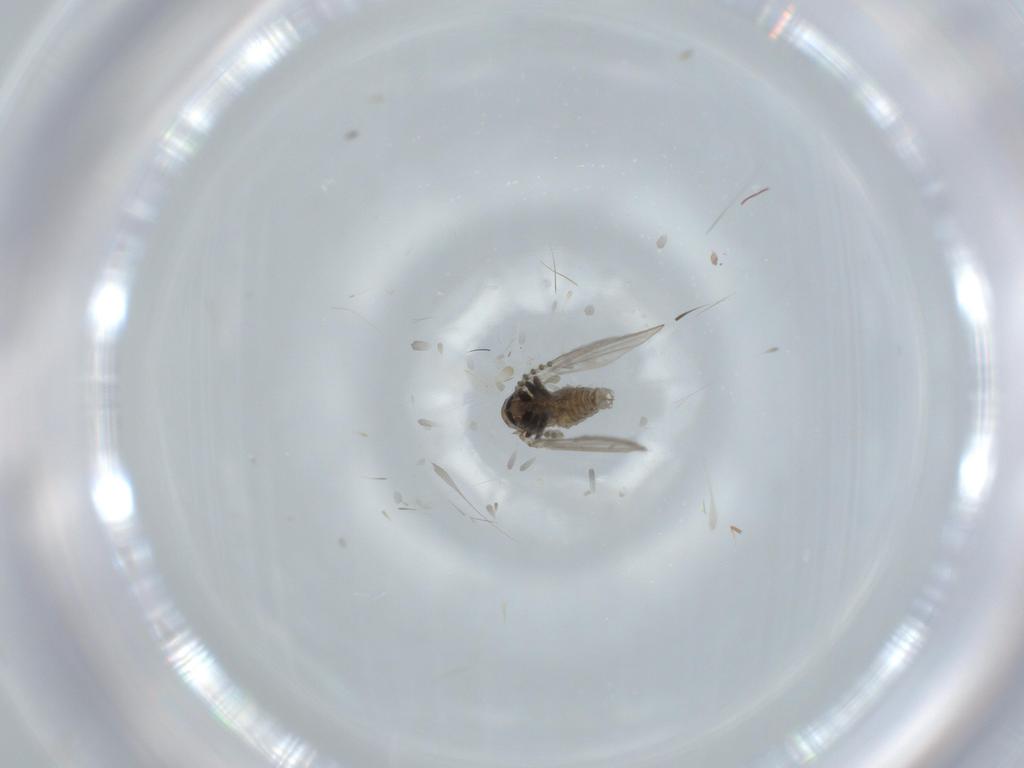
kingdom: Animalia
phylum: Arthropoda
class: Insecta
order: Diptera
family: Psychodidae
